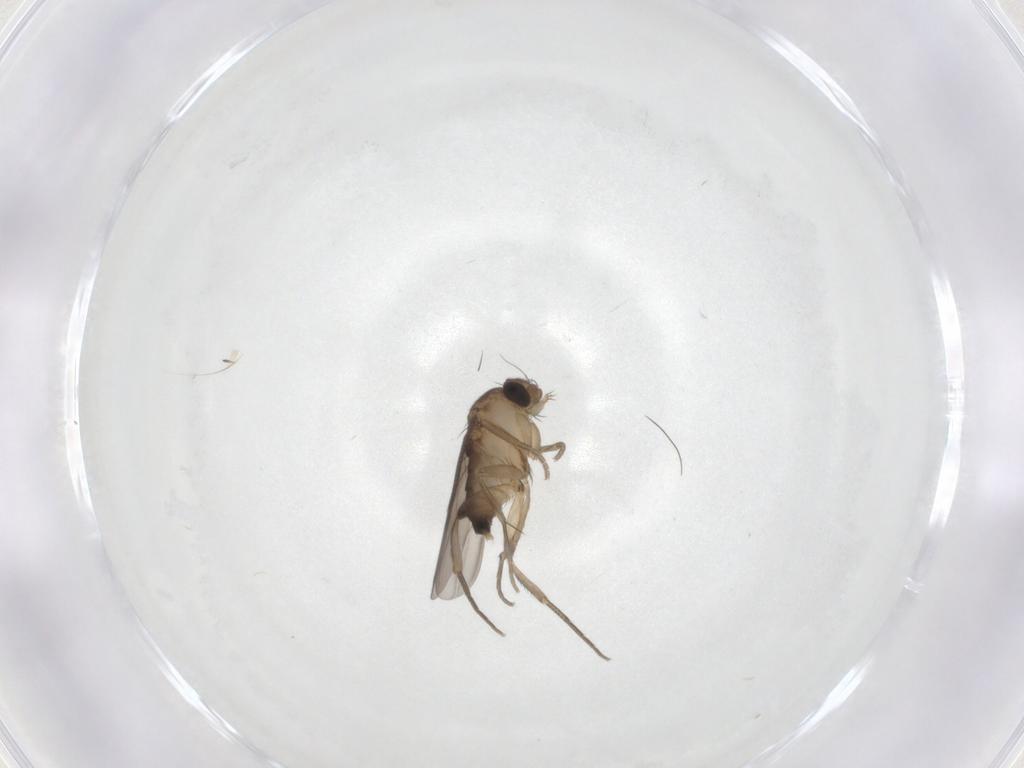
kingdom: Animalia
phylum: Arthropoda
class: Insecta
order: Diptera
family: Phoridae
